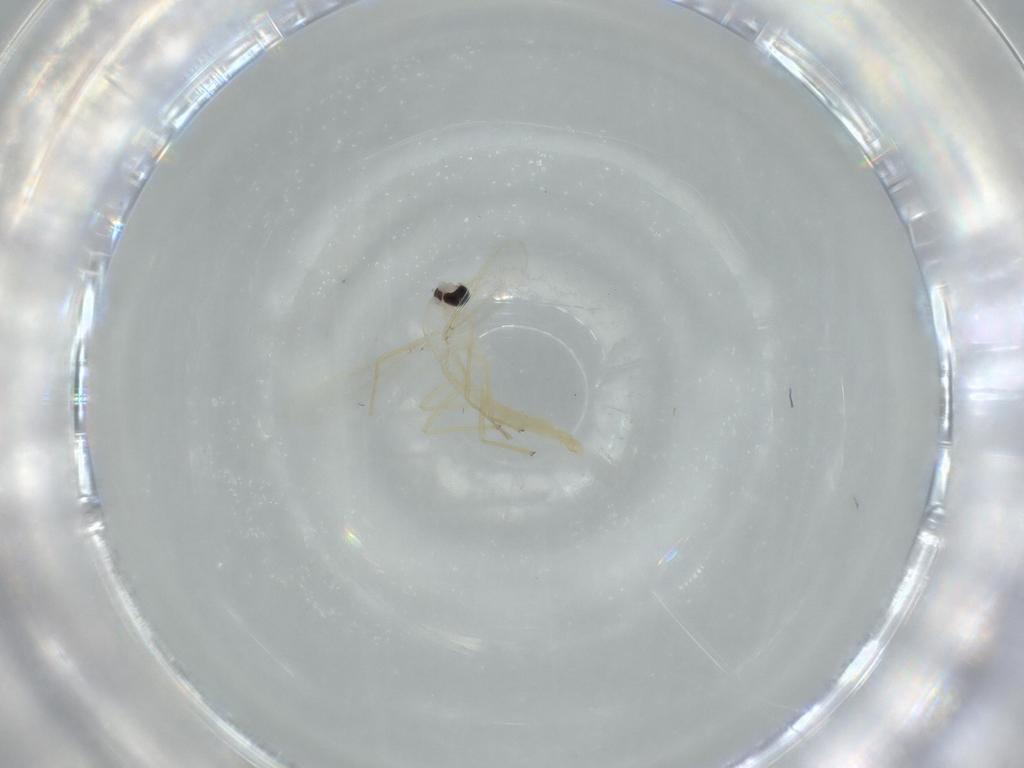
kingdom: Animalia
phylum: Arthropoda
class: Insecta
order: Diptera
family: Chironomidae
